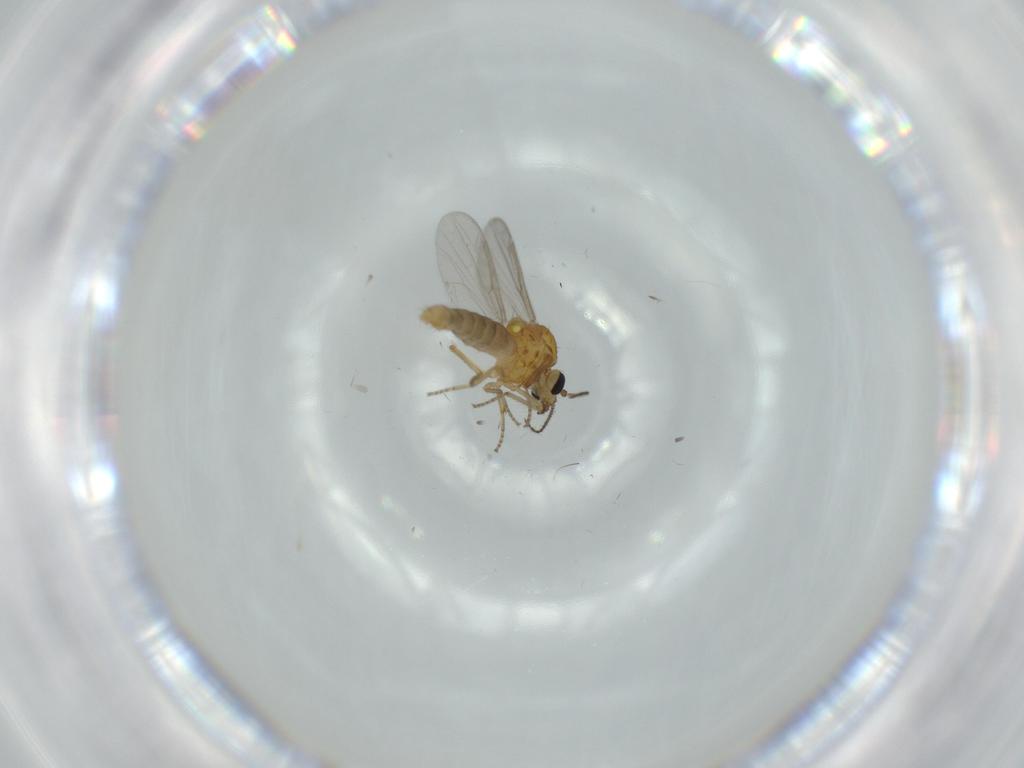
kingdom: Animalia
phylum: Arthropoda
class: Insecta
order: Diptera
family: Ceratopogonidae
